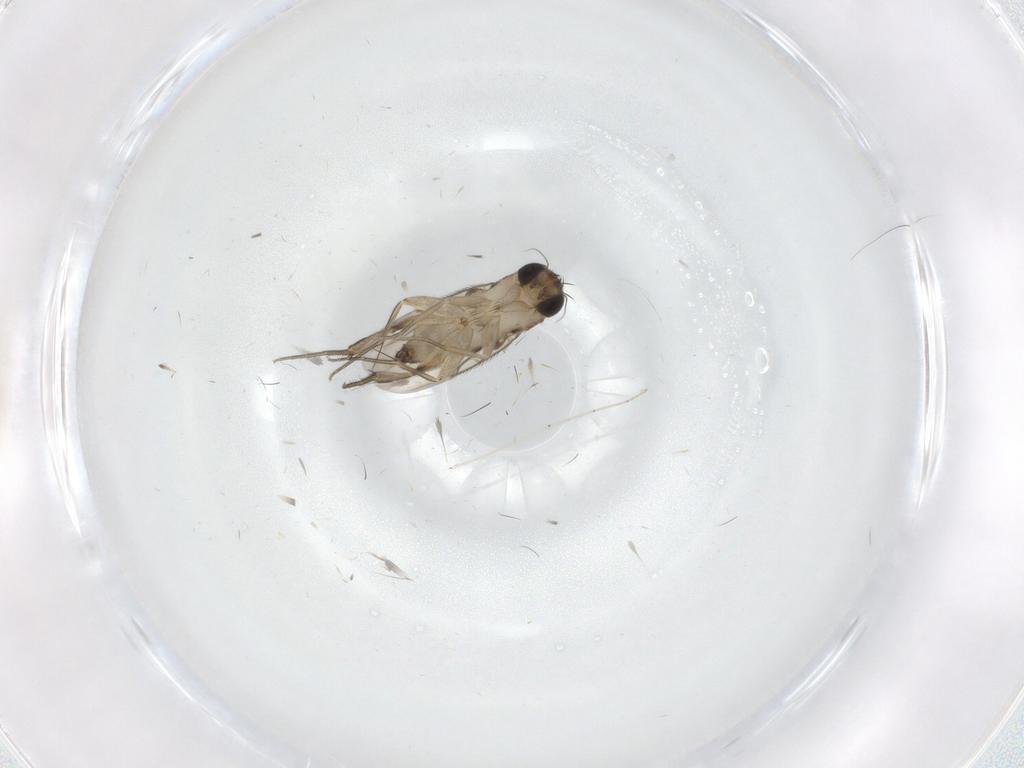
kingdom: Animalia
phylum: Arthropoda
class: Insecta
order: Diptera
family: Phoridae
